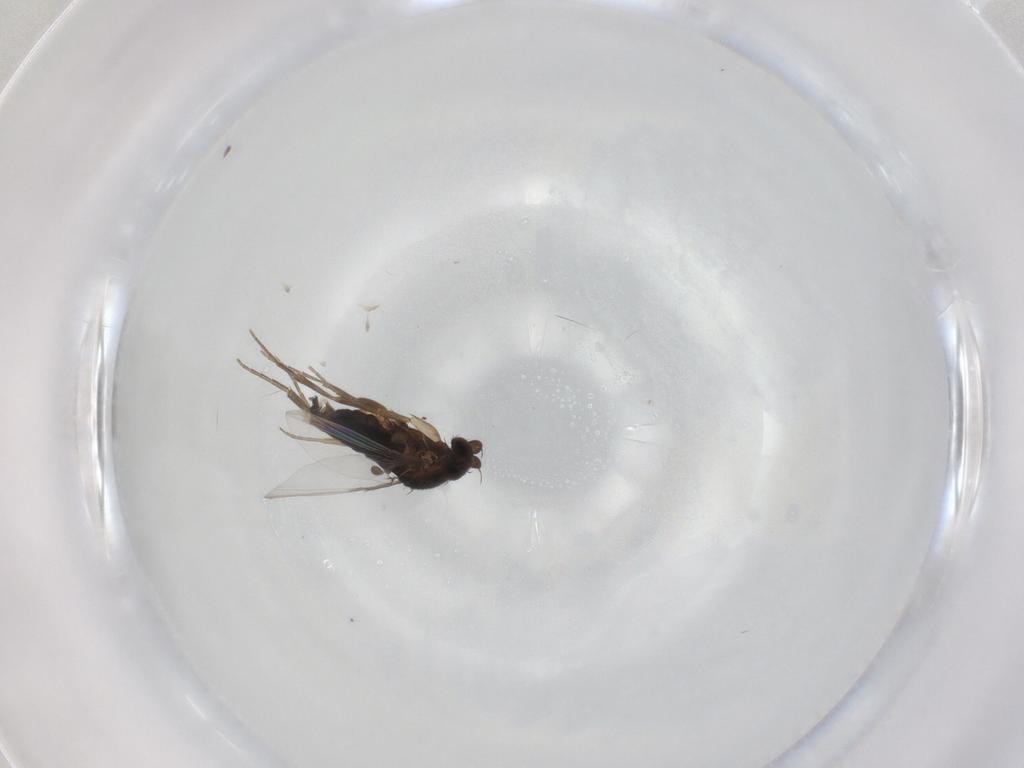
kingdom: Animalia
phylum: Arthropoda
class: Insecta
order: Diptera
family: Phoridae
